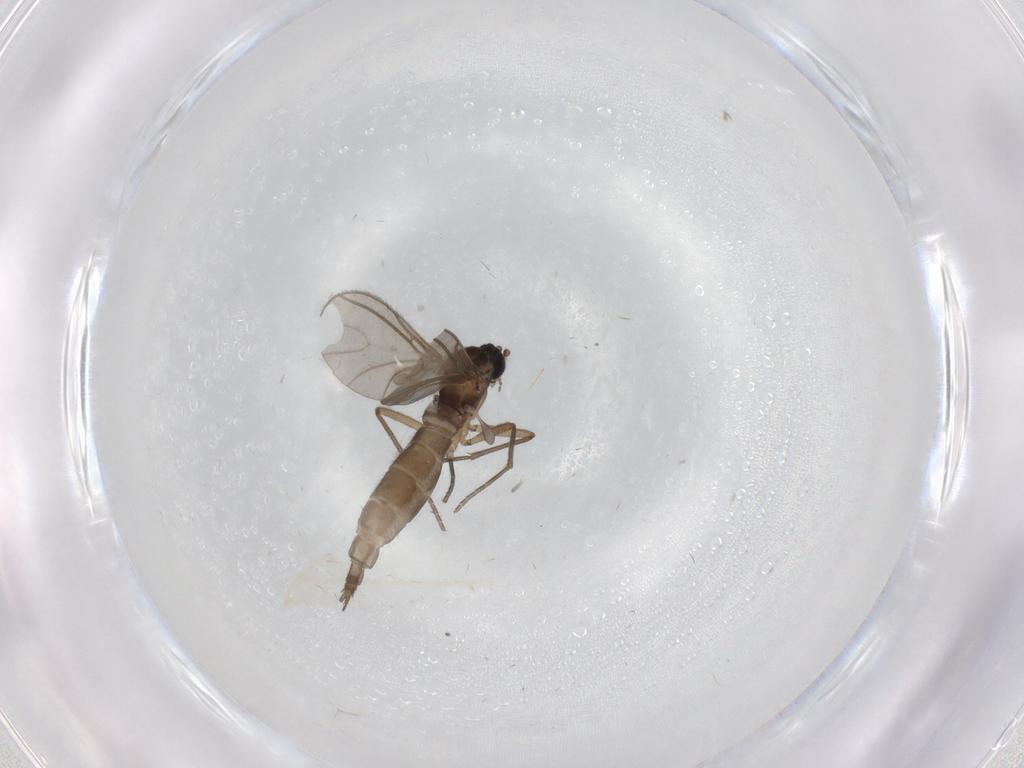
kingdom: Animalia
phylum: Arthropoda
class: Insecta
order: Diptera
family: Sciaridae
